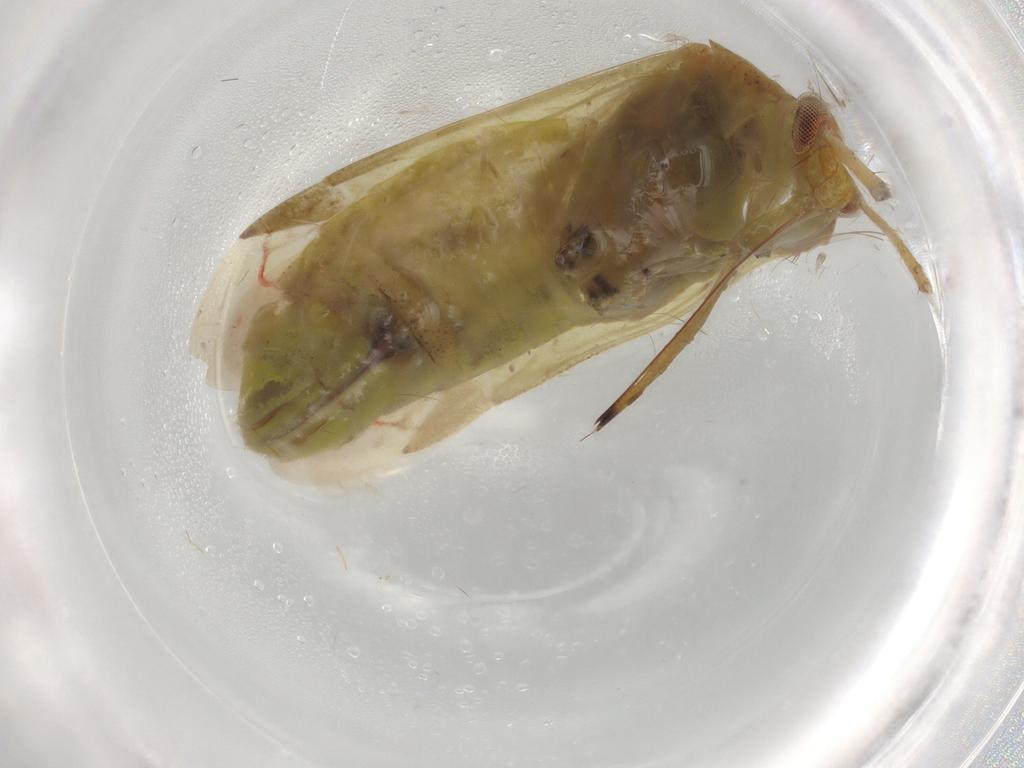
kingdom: Animalia
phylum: Arthropoda
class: Insecta
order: Hemiptera
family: Miridae
